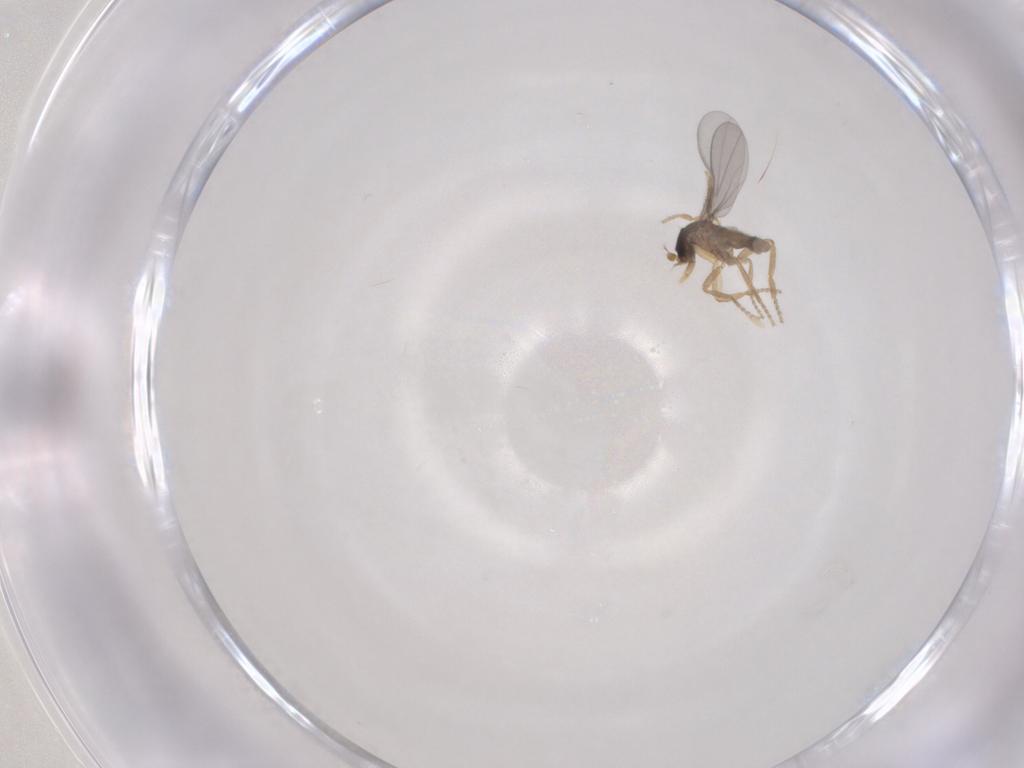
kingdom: Animalia
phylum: Arthropoda
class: Insecta
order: Diptera
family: Phoridae
